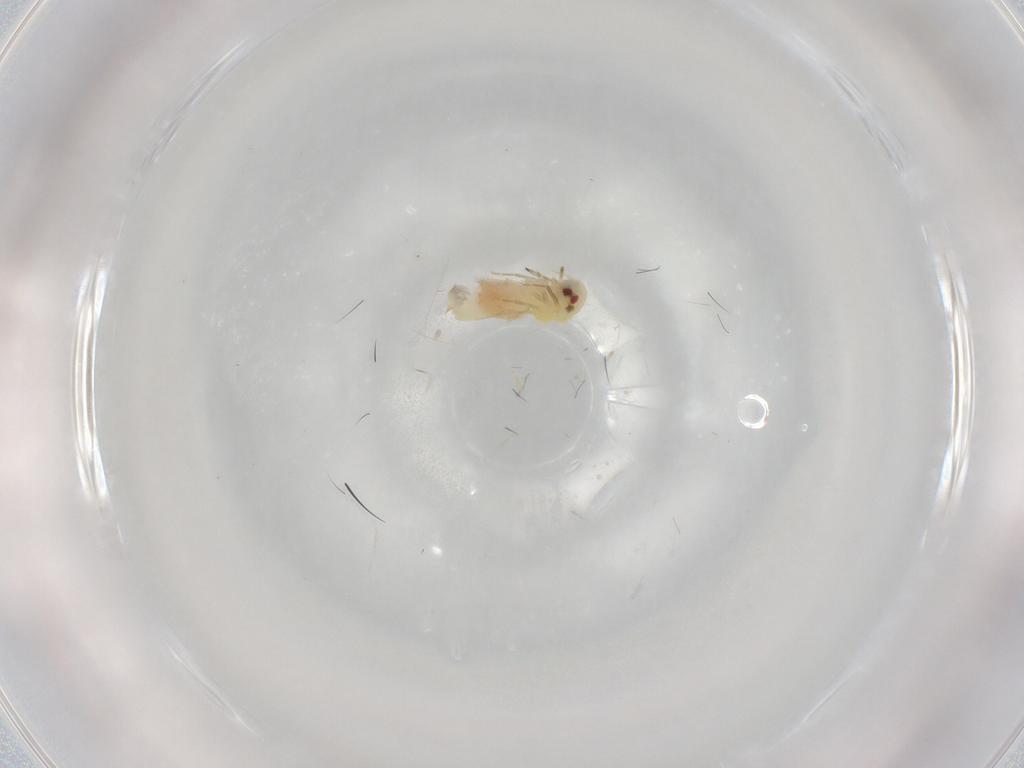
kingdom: Animalia
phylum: Arthropoda
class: Insecta
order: Hemiptera
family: Aleyrodidae
